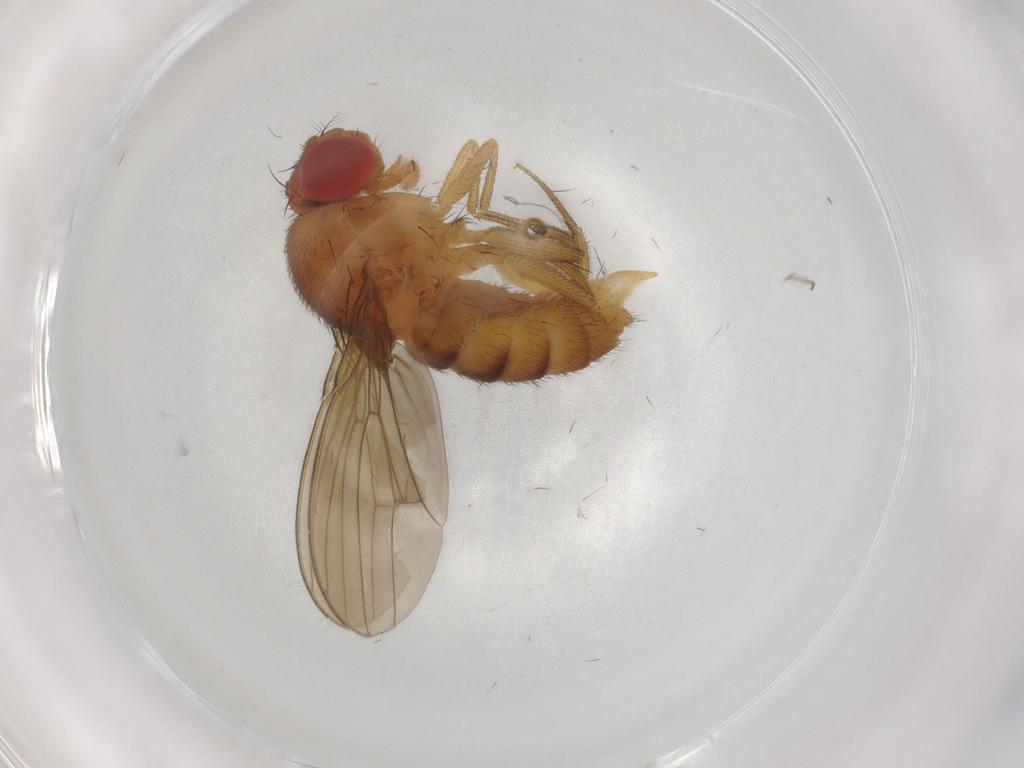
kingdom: Animalia
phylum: Arthropoda
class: Insecta
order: Diptera
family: Drosophilidae
